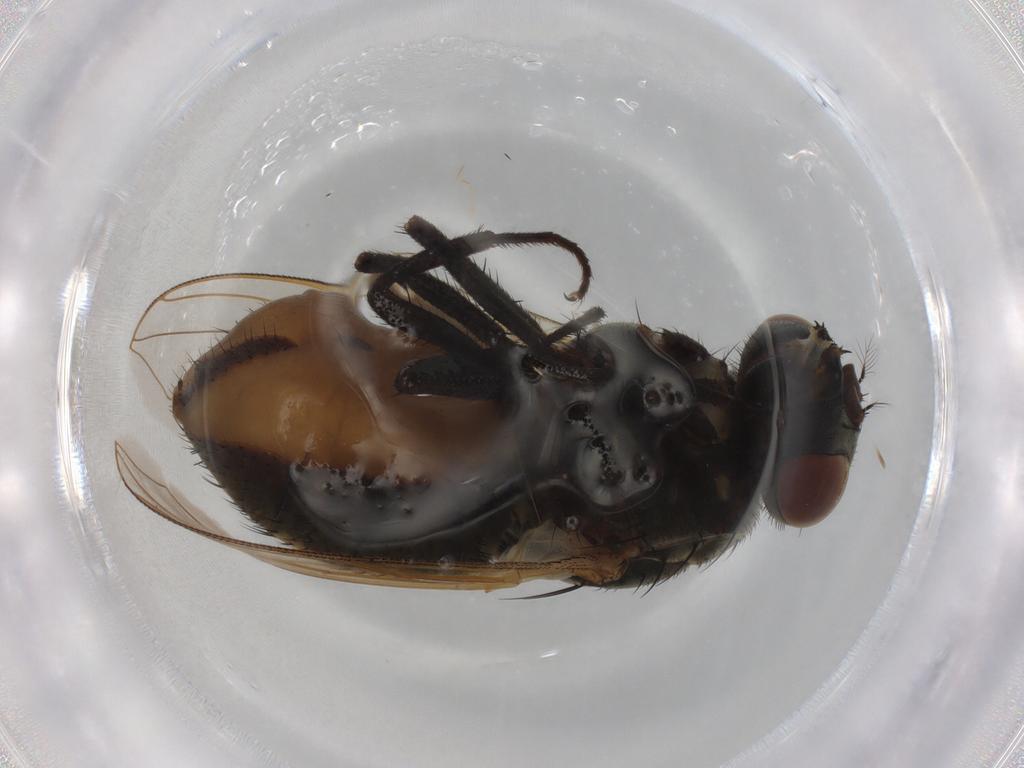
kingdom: Animalia
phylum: Arthropoda
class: Insecta
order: Diptera
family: Muscidae
